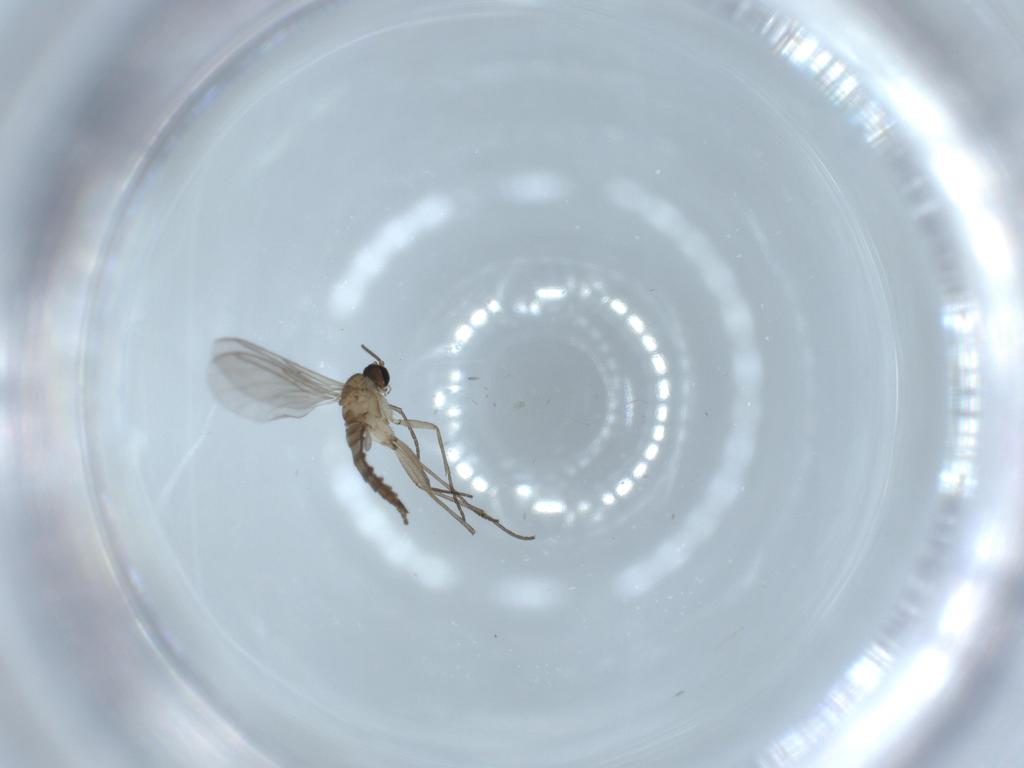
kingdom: Animalia
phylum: Arthropoda
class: Insecta
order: Diptera
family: Sciaridae
